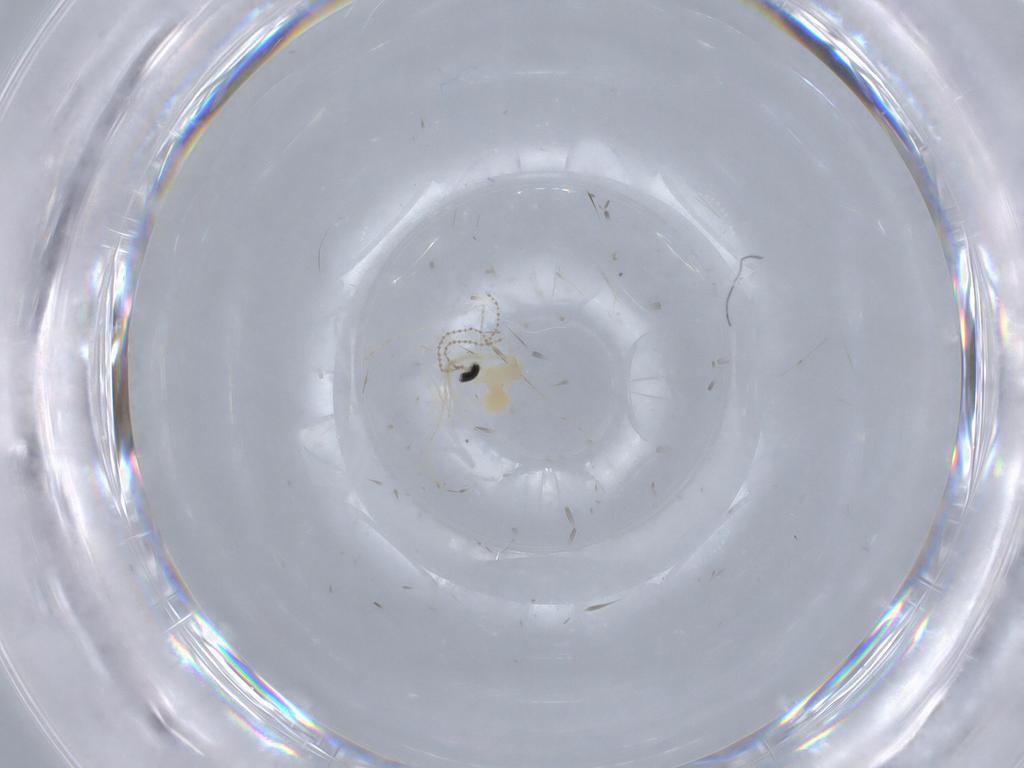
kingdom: Animalia
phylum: Arthropoda
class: Insecta
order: Diptera
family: Cecidomyiidae
